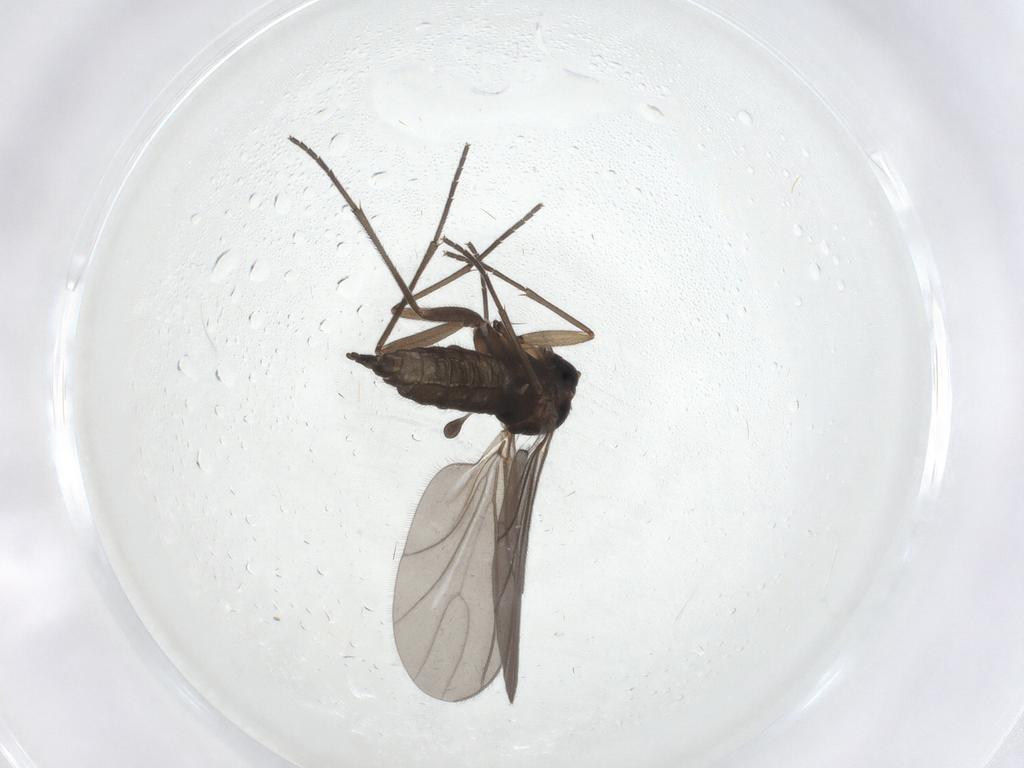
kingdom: Animalia
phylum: Arthropoda
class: Insecta
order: Diptera
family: Sciaridae
